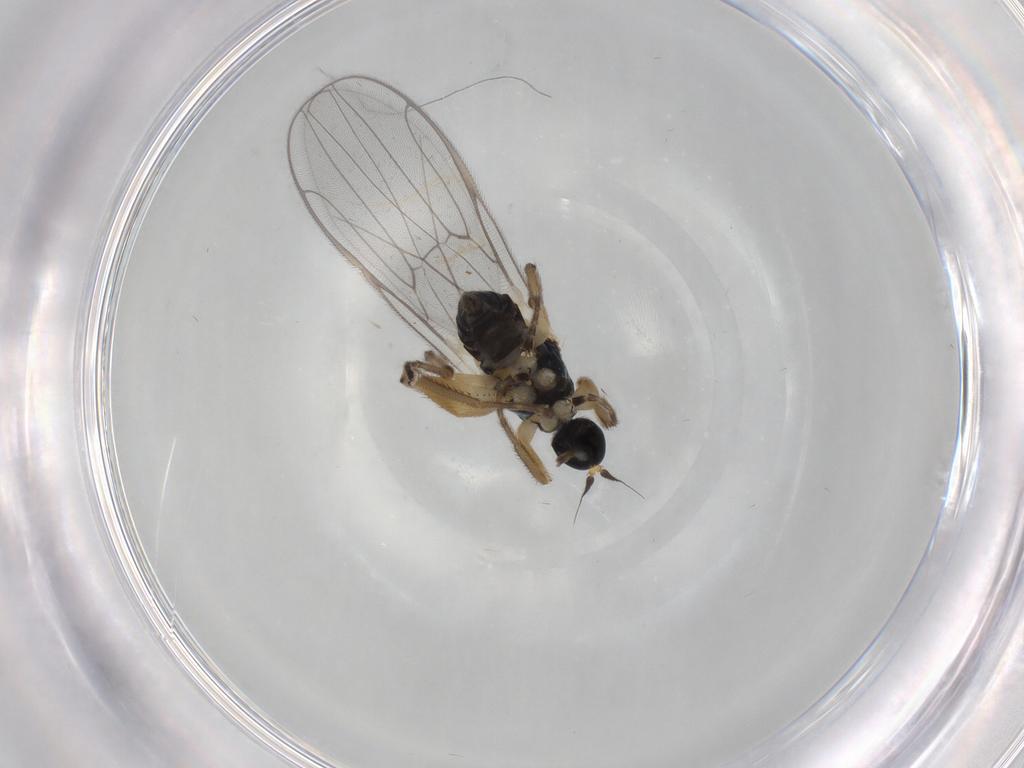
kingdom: Animalia
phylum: Arthropoda
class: Insecta
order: Diptera
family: Hybotidae
